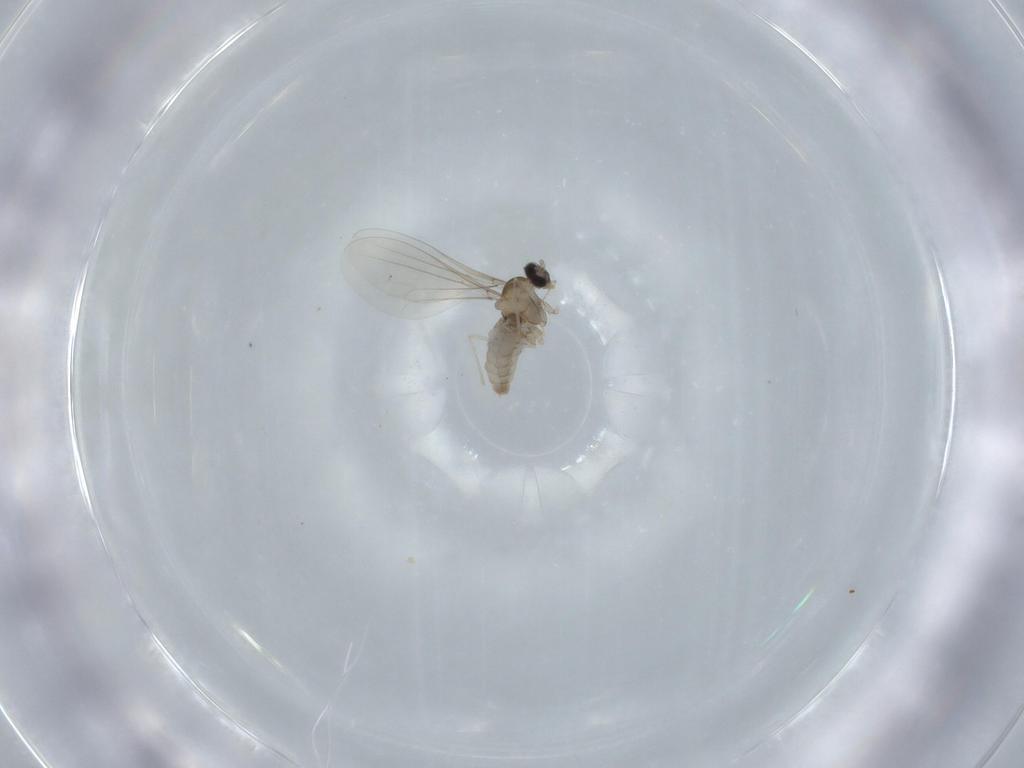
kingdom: Animalia
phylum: Arthropoda
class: Insecta
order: Diptera
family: Cecidomyiidae
